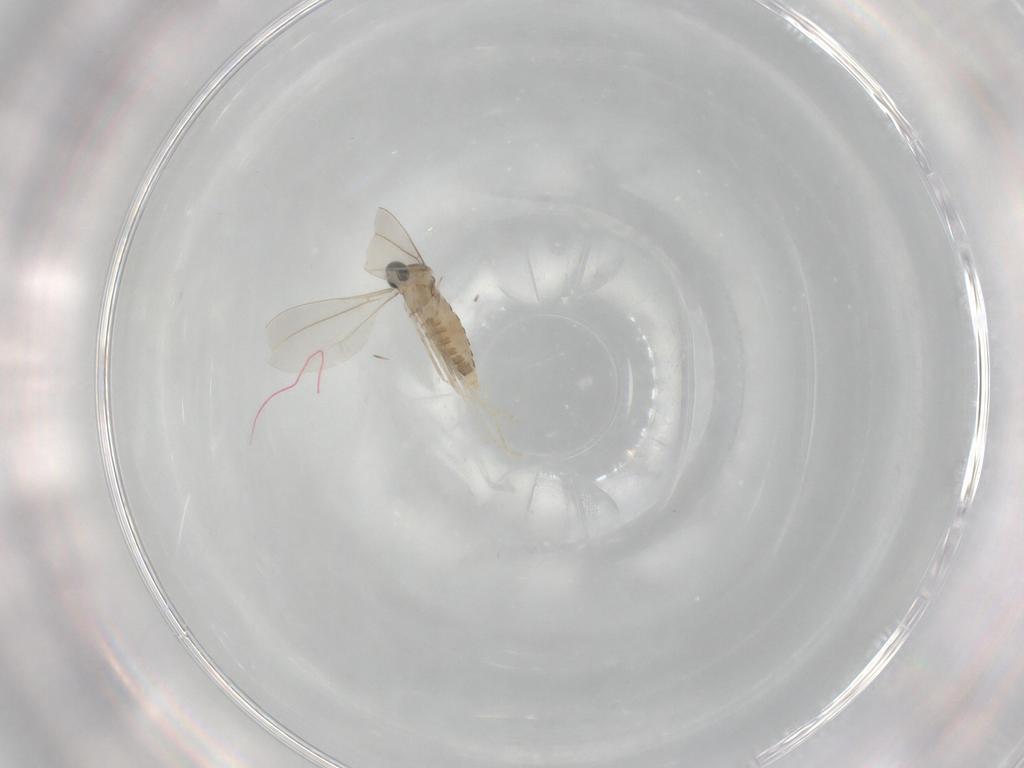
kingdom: Animalia
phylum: Arthropoda
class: Insecta
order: Diptera
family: Cecidomyiidae
